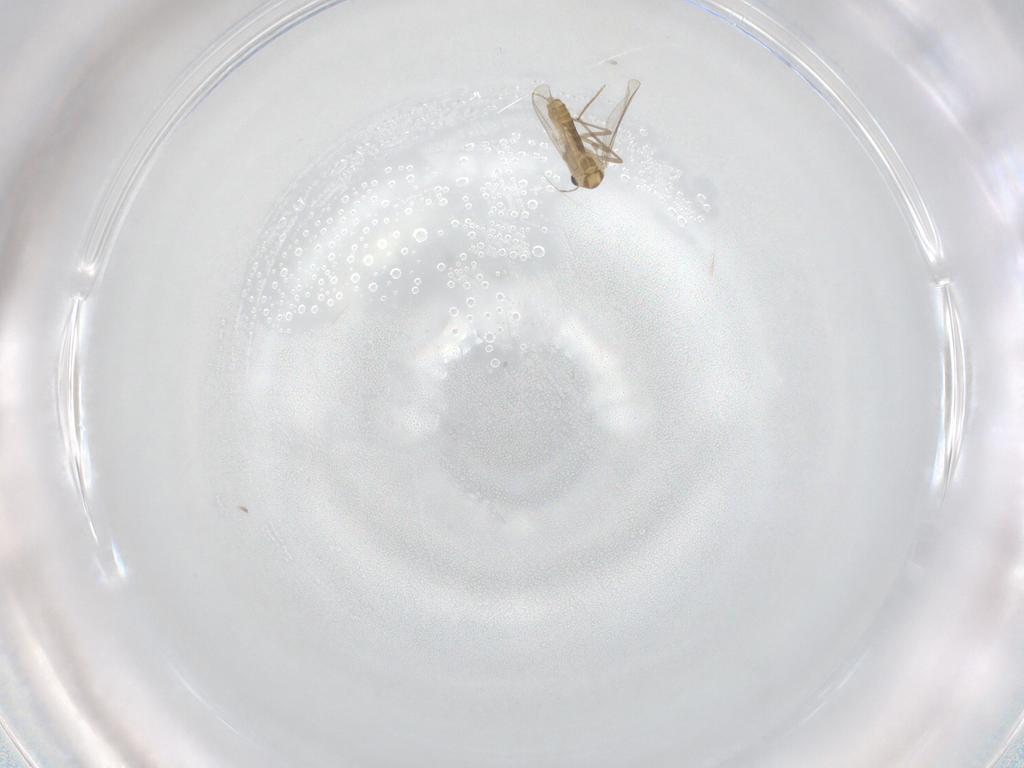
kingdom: Animalia
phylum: Arthropoda
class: Insecta
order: Diptera
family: Chironomidae
